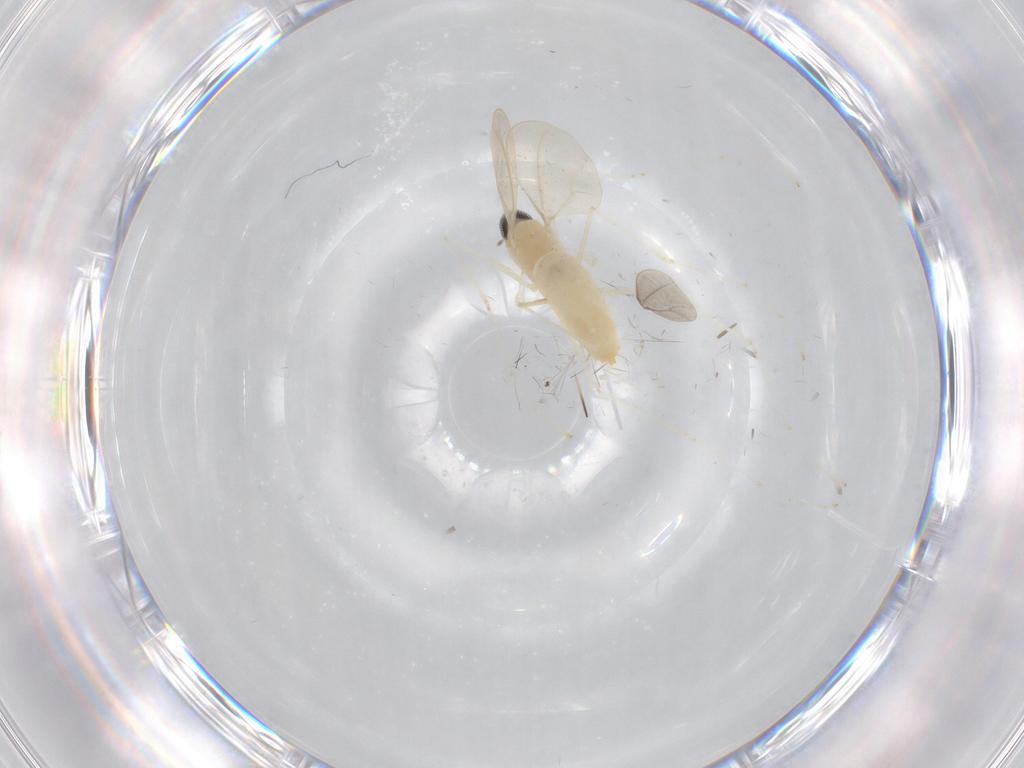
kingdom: Animalia
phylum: Arthropoda
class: Insecta
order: Diptera
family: Cecidomyiidae
